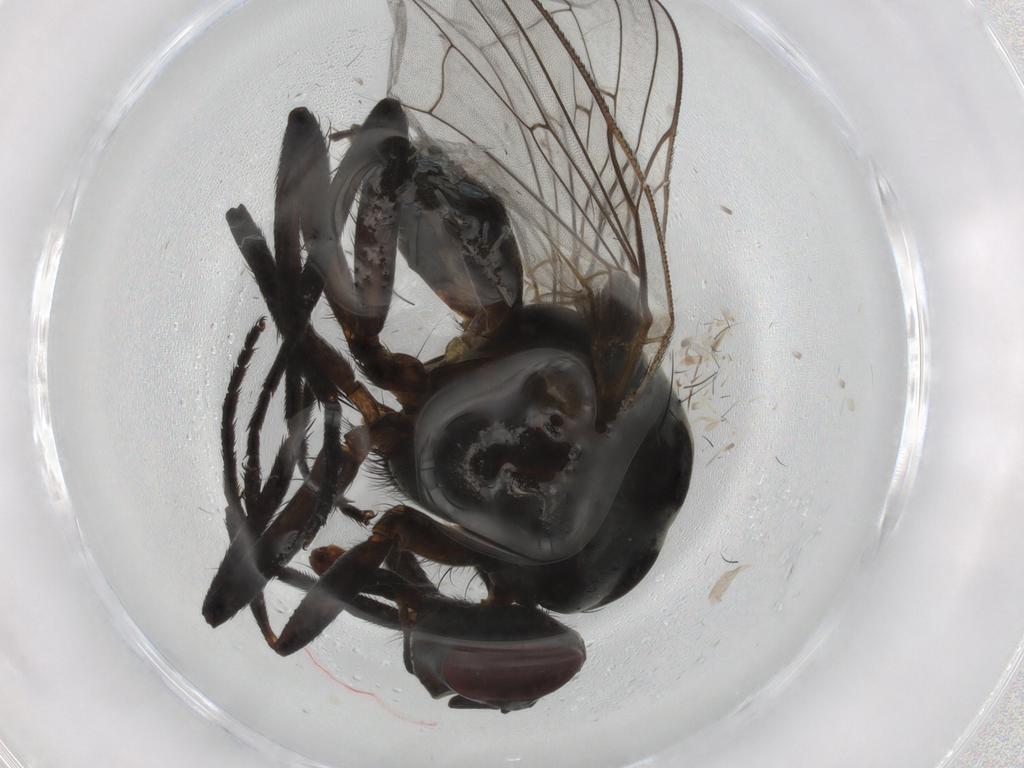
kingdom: Animalia
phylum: Arthropoda
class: Insecta
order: Diptera
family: Anthomyiidae
